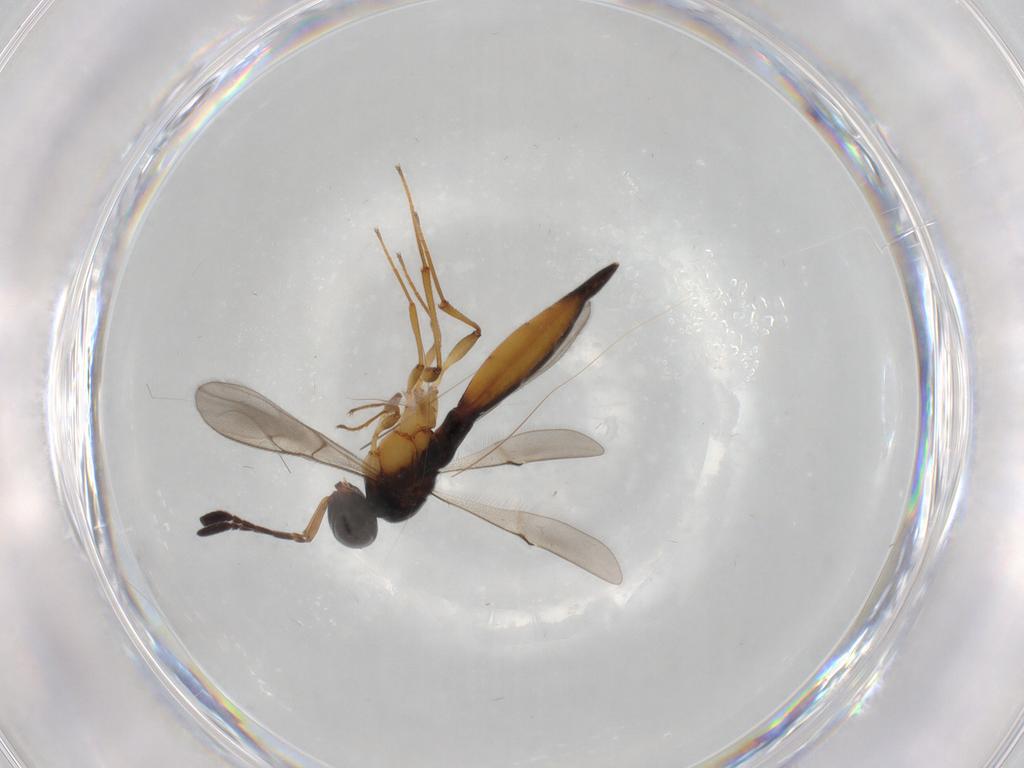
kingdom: Animalia
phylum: Arthropoda
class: Insecta
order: Hymenoptera
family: Scelionidae
